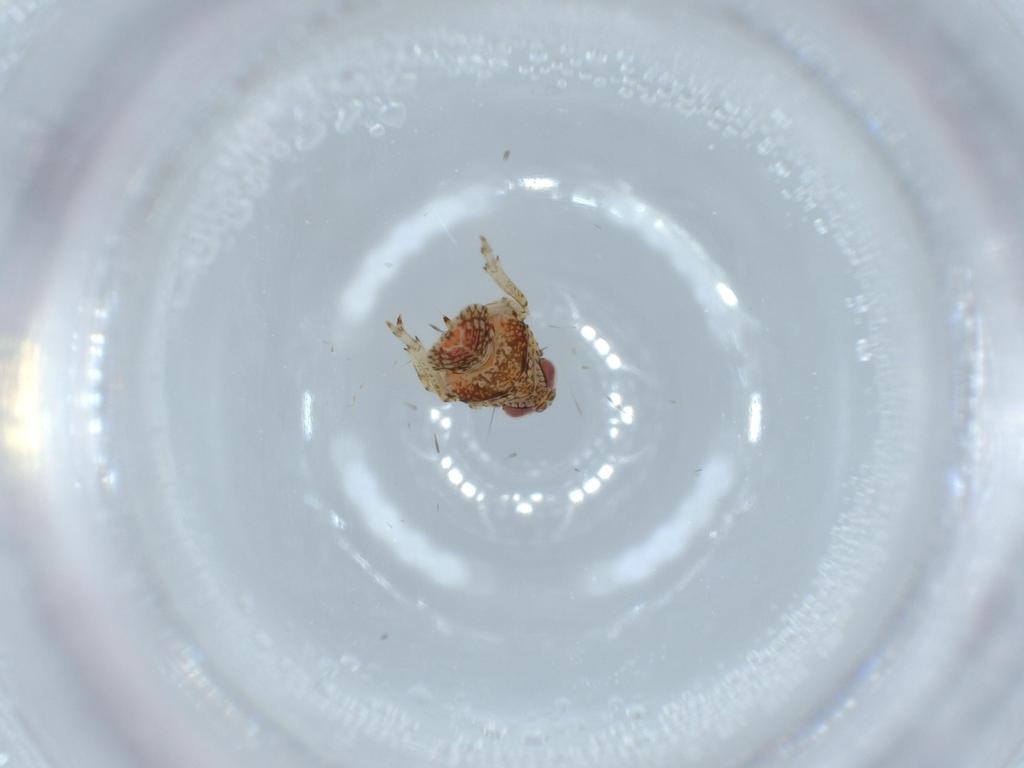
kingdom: Animalia
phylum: Arthropoda
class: Insecta
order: Hemiptera
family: Issidae
